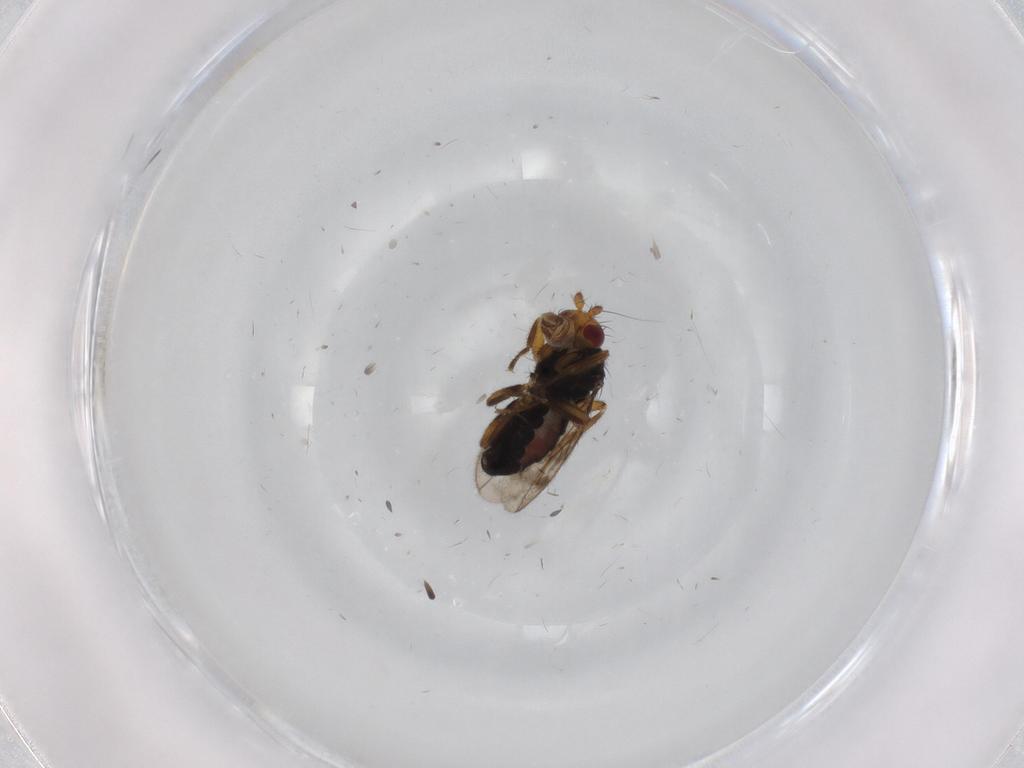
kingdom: Animalia
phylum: Arthropoda
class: Insecta
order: Diptera
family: Sphaeroceridae
